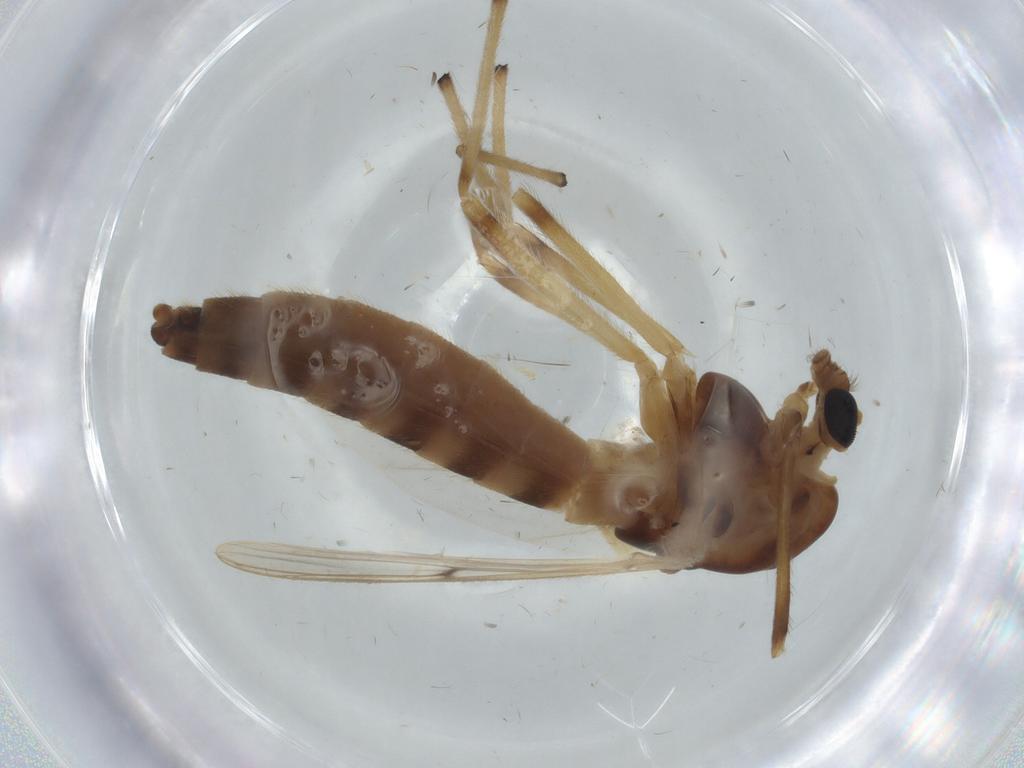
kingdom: Animalia
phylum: Arthropoda
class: Insecta
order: Diptera
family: Chironomidae
